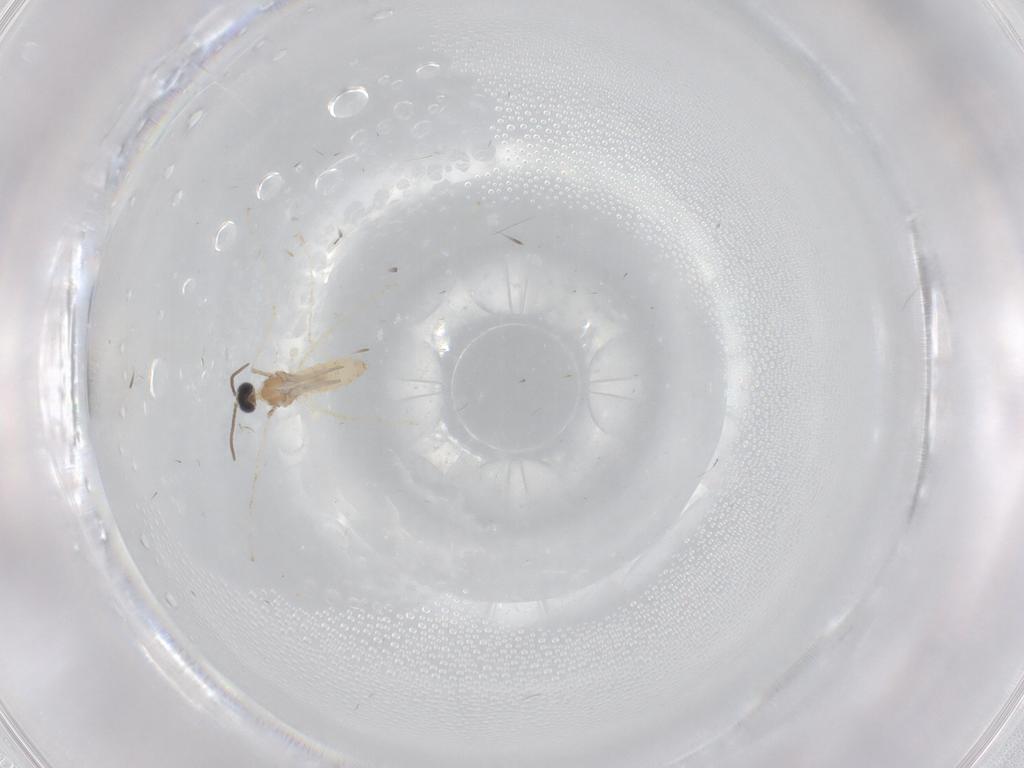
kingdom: Animalia
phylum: Arthropoda
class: Insecta
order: Diptera
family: Cecidomyiidae
